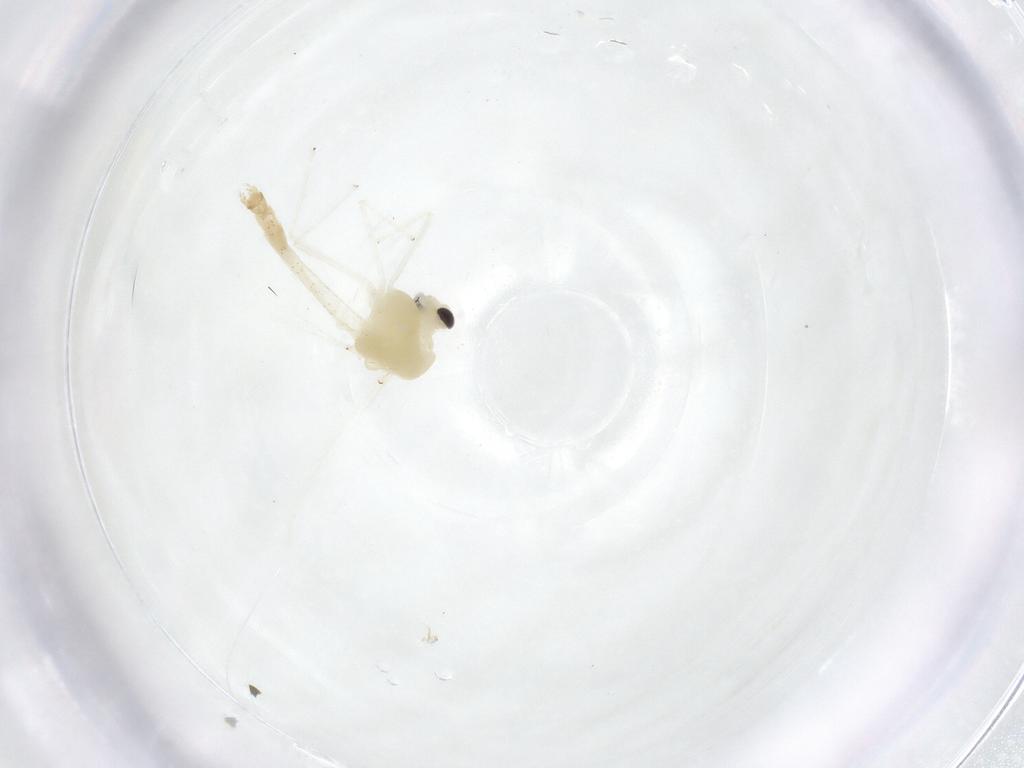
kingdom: Animalia
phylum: Arthropoda
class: Insecta
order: Diptera
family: Chironomidae
